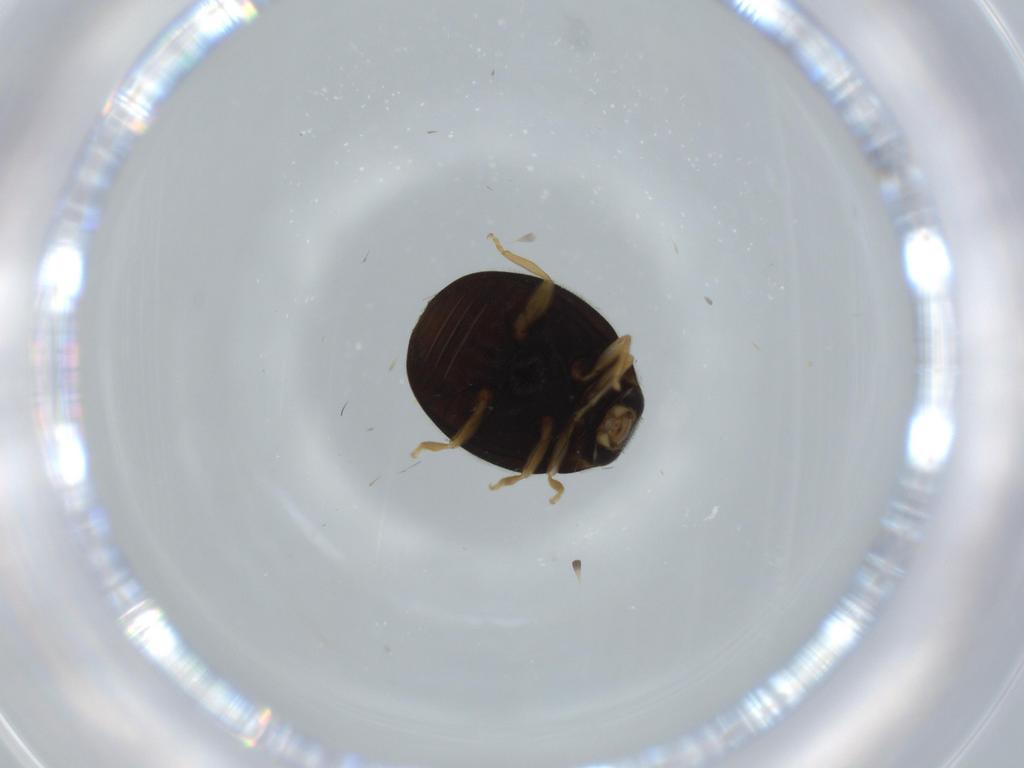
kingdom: Animalia
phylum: Arthropoda
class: Insecta
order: Coleoptera
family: Coccinellidae
